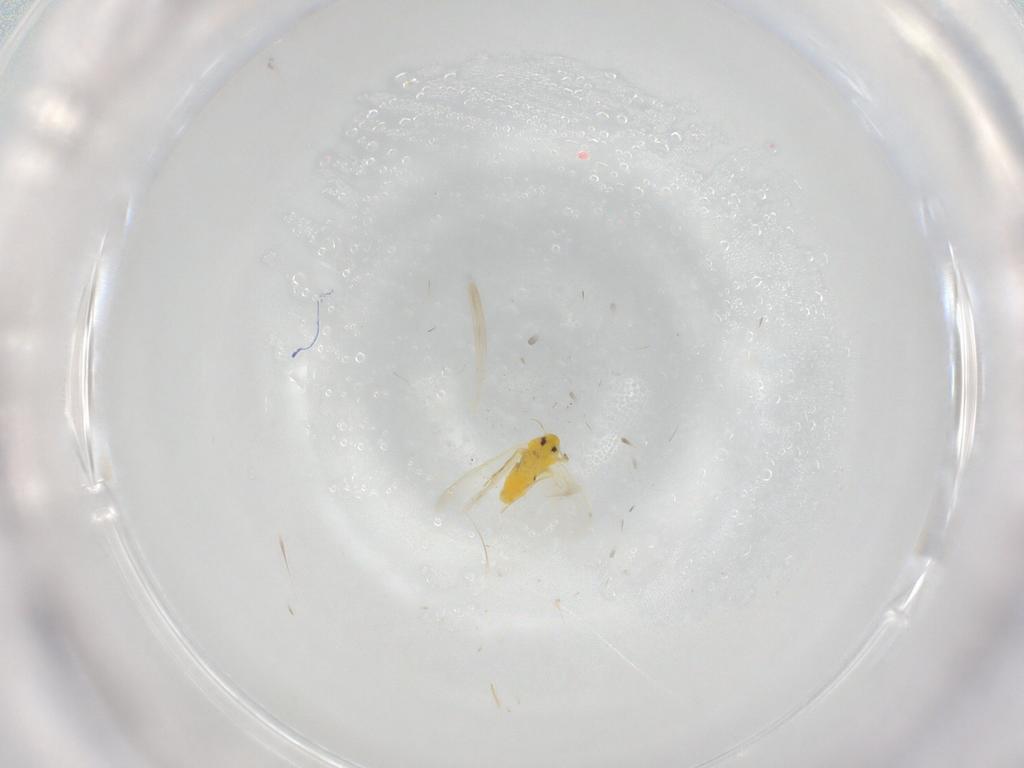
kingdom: Animalia
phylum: Arthropoda
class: Insecta
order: Hemiptera
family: Aleyrodidae
